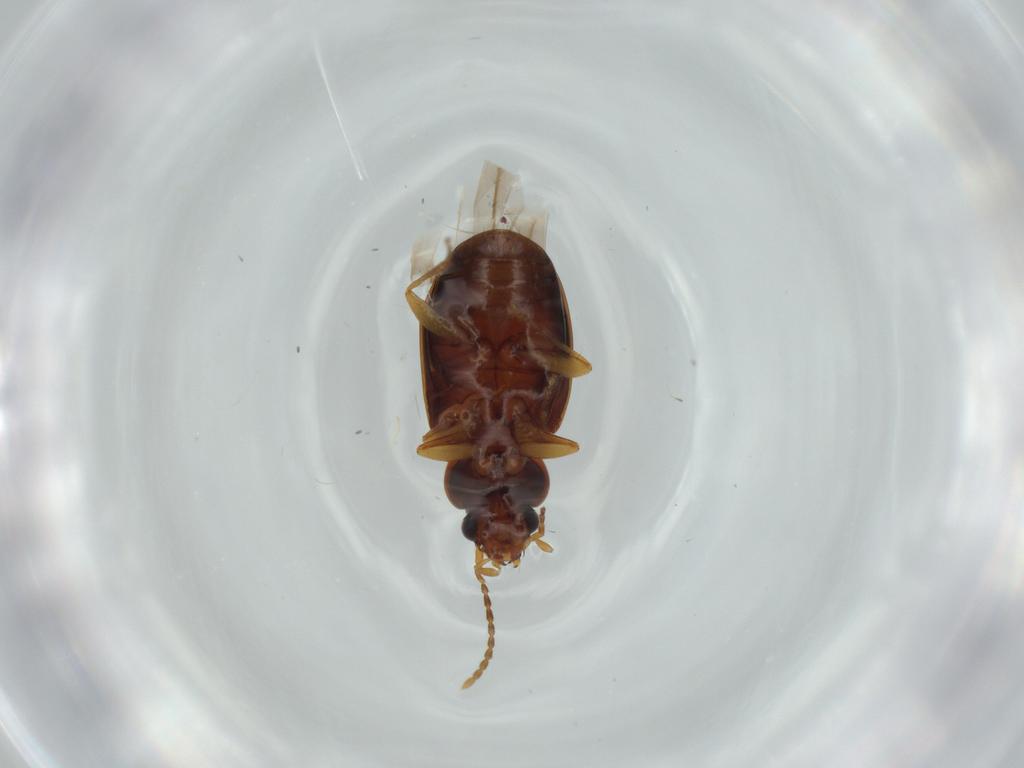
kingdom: Animalia
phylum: Arthropoda
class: Insecta
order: Coleoptera
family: Carabidae
